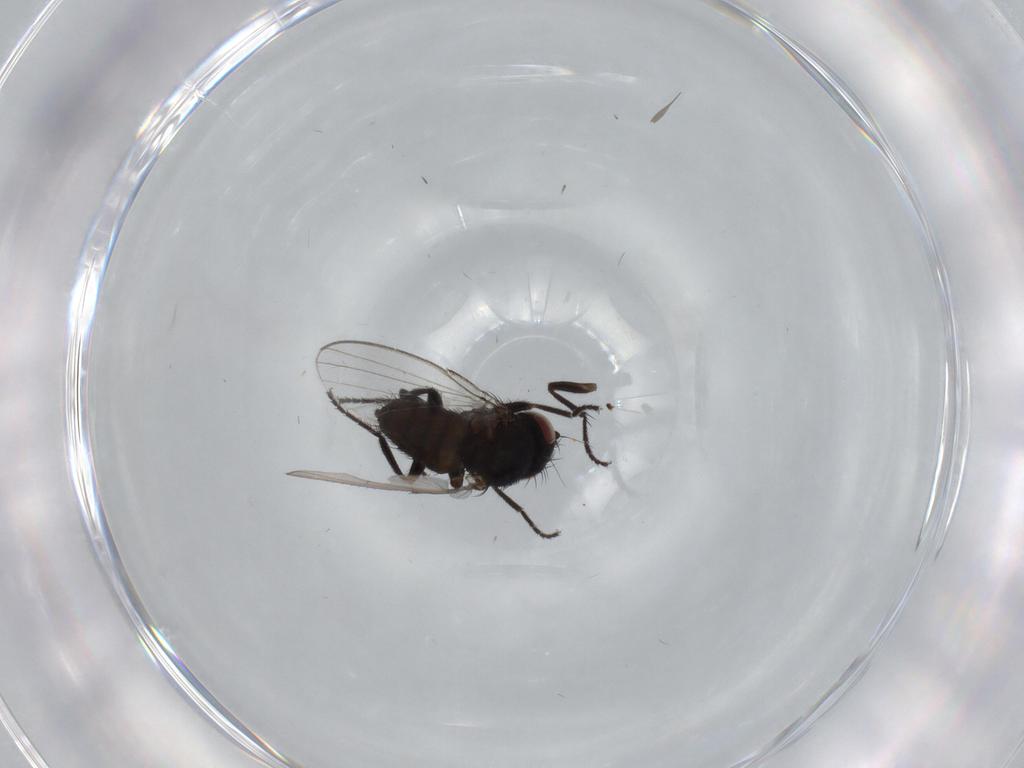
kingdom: Animalia
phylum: Arthropoda
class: Insecta
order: Diptera
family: Milichiidae
